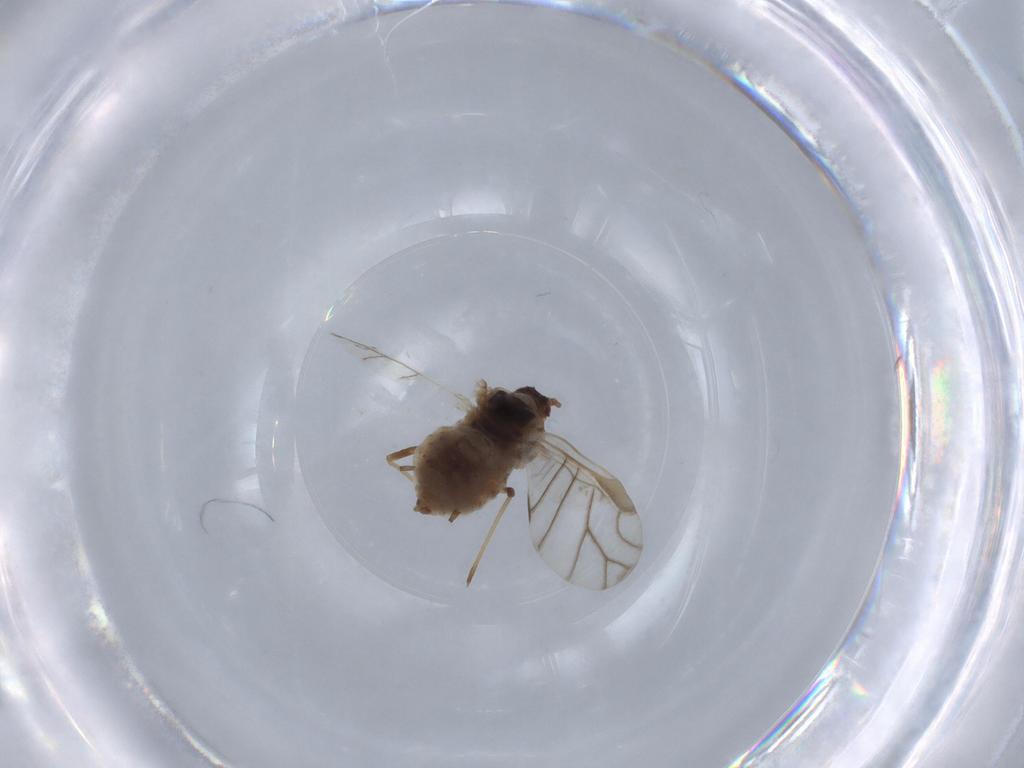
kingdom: Animalia
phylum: Arthropoda
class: Insecta
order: Hemiptera
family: Aphididae
